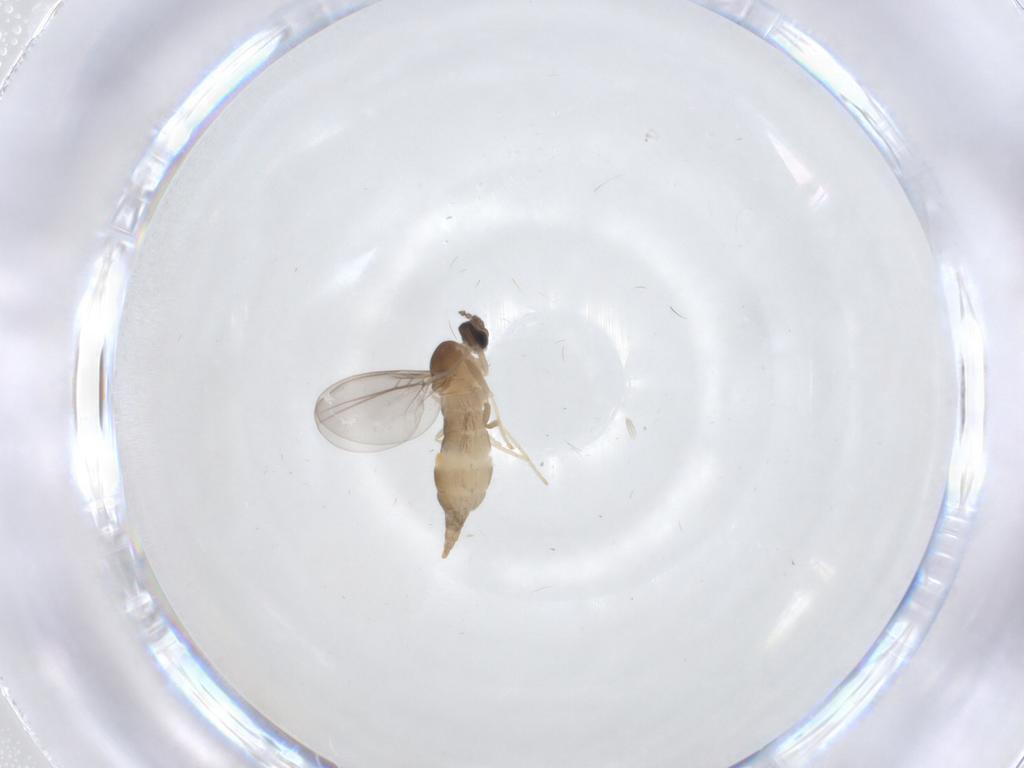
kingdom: Animalia
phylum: Arthropoda
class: Insecta
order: Diptera
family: Cecidomyiidae
